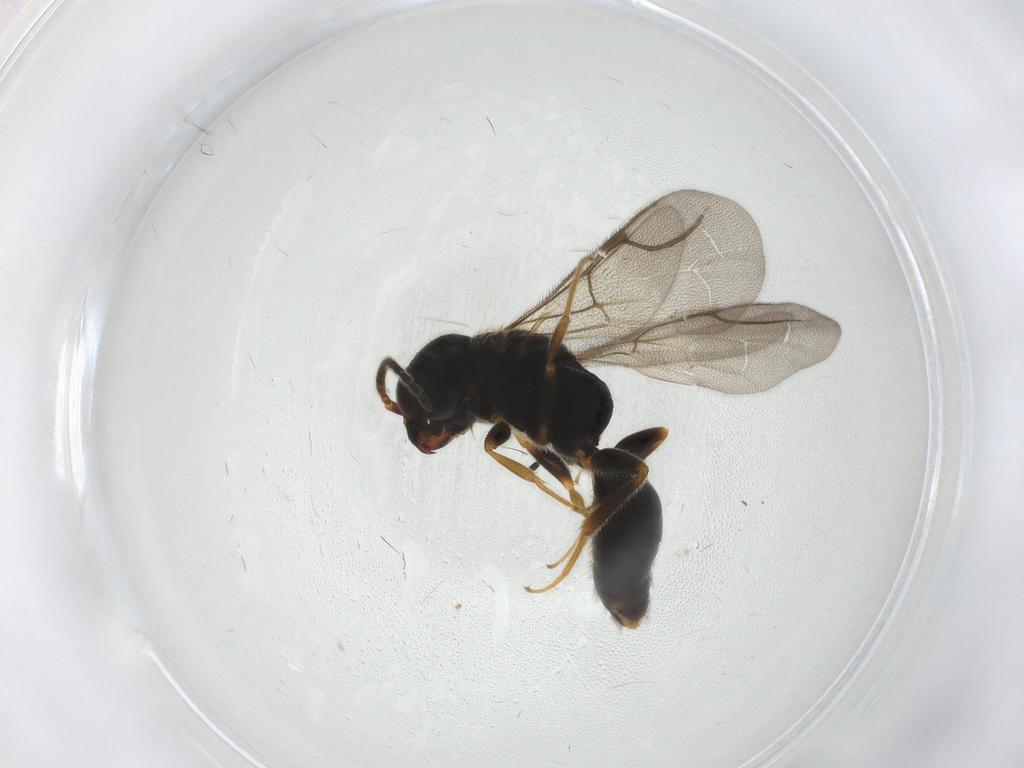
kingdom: Animalia
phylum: Arthropoda
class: Insecta
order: Hymenoptera
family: Bethylidae
